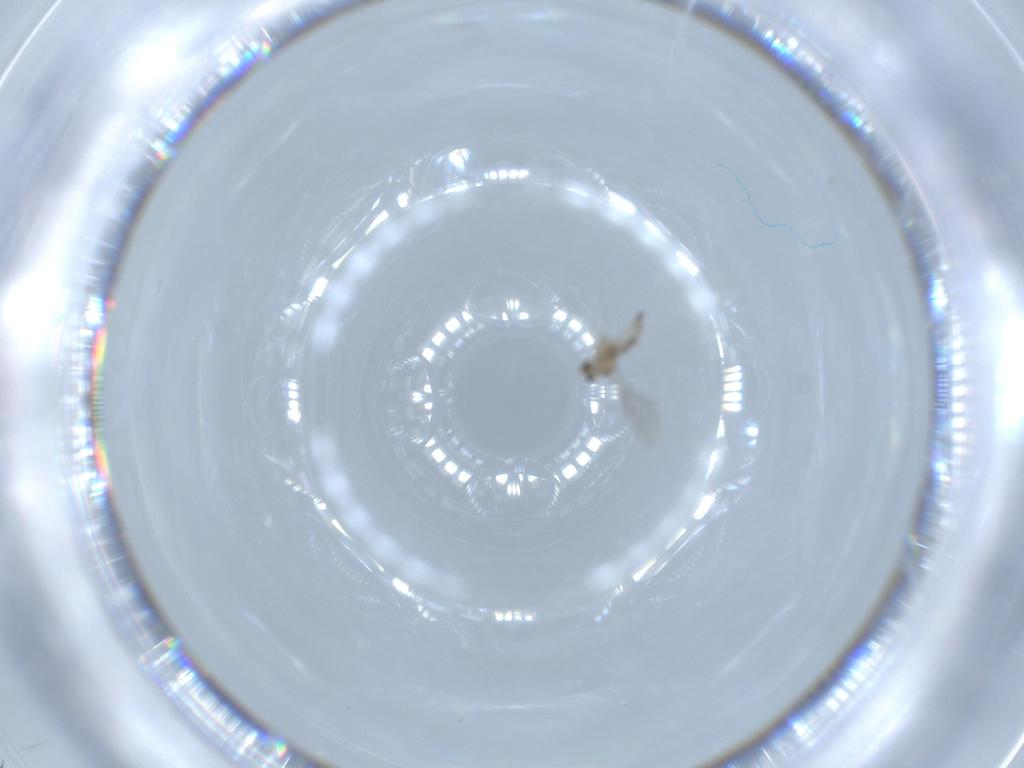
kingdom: Animalia
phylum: Arthropoda
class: Insecta
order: Diptera
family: Cecidomyiidae
